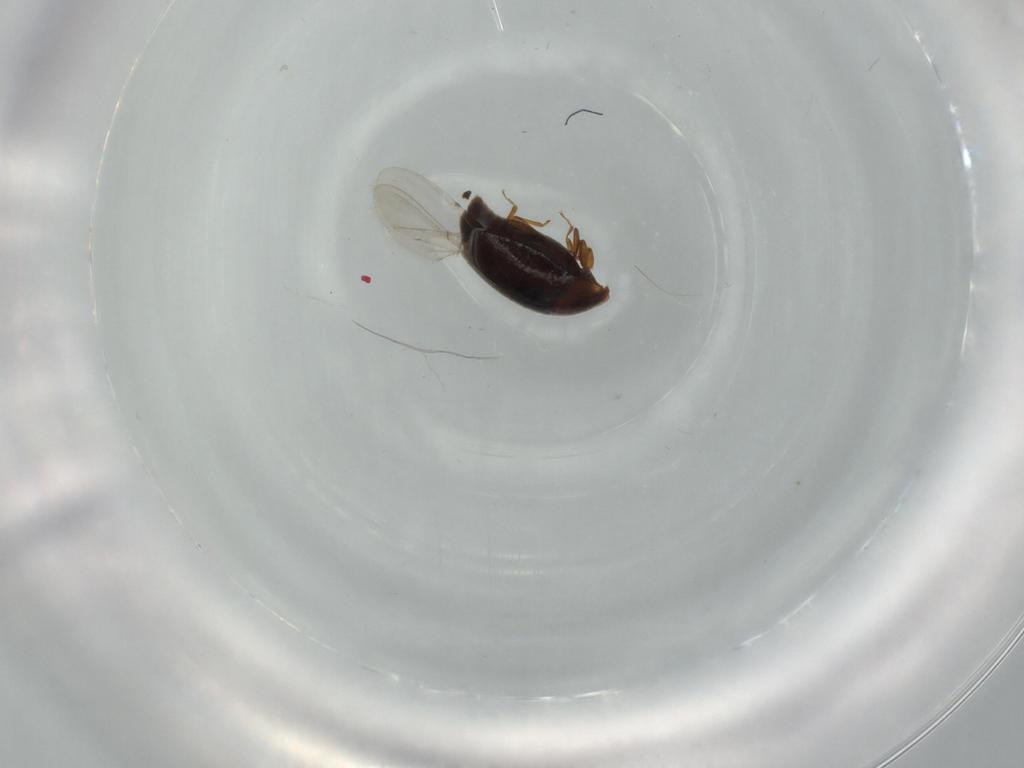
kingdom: Animalia
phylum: Arthropoda
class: Insecta
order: Coleoptera
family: Corylophidae
